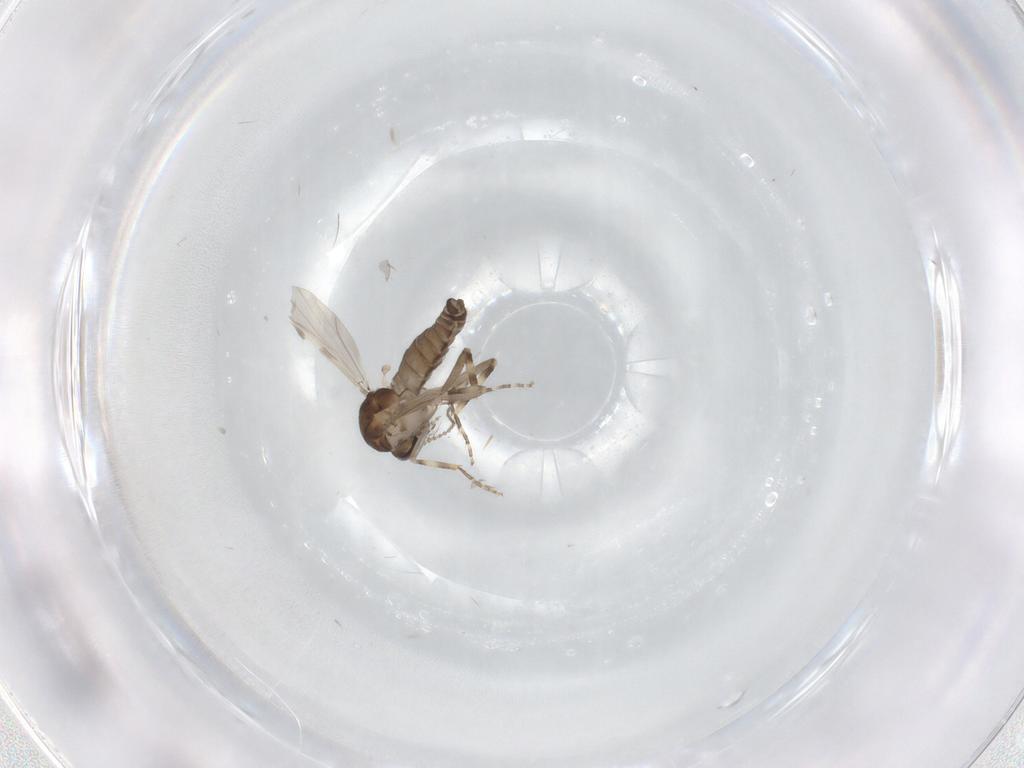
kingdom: Animalia
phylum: Arthropoda
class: Insecta
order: Diptera
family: Ceratopogonidae
